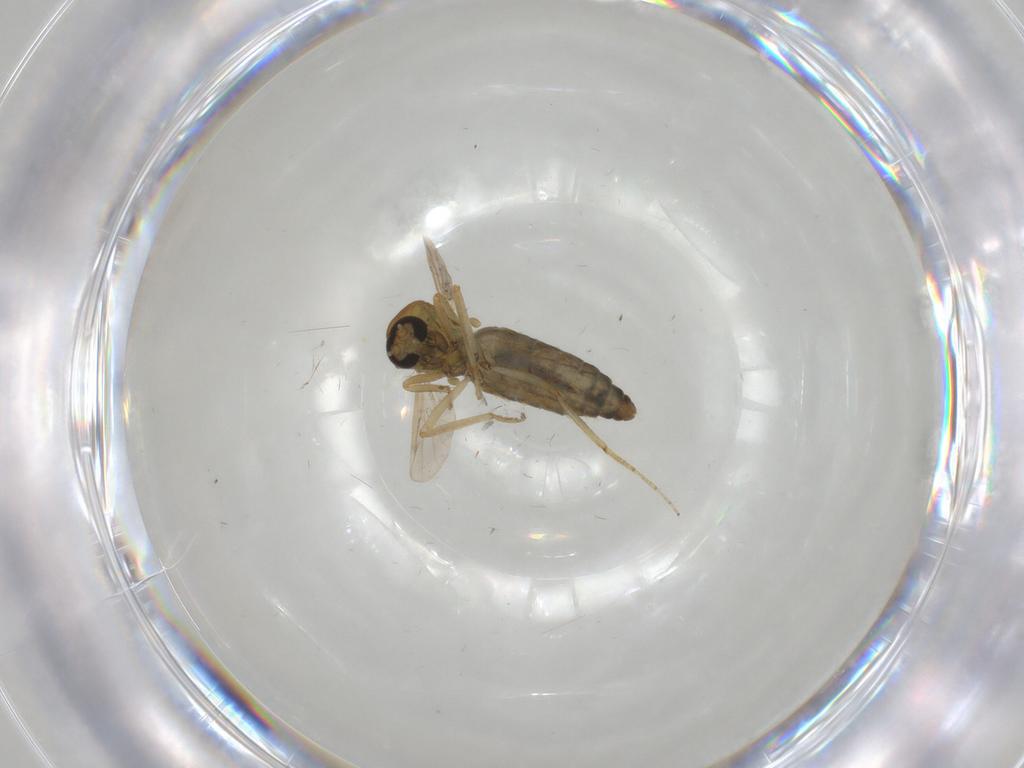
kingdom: Animalia
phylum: Arthropoda
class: Insecta
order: Diptera
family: Ceratopogonidae
